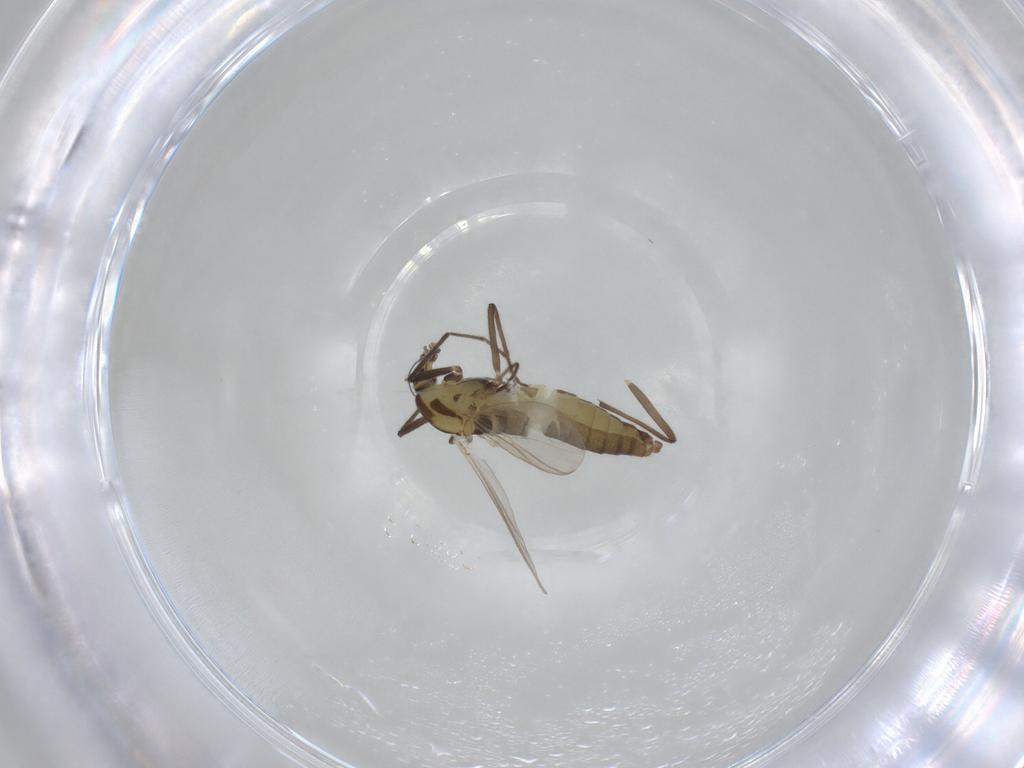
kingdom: Animalia
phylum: Arthropoda
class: Insecta
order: Diptera
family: Chironomidae
